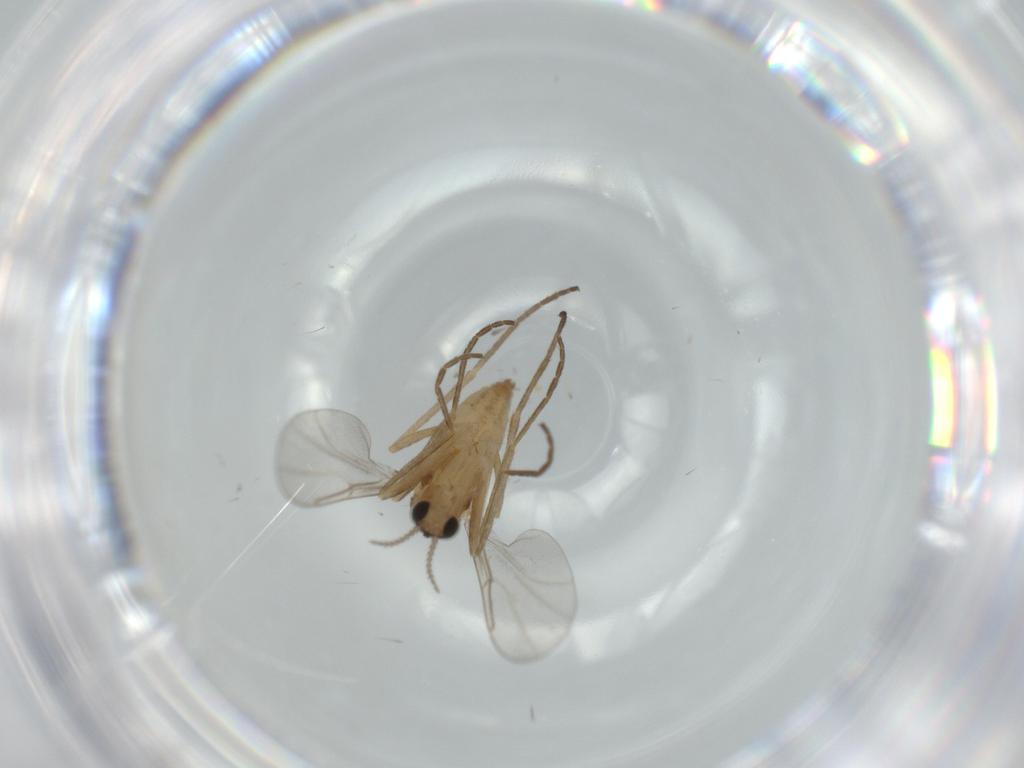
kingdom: Animalia
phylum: Arthropoda
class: Insecta
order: Diptera
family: Cecidomyiidae
